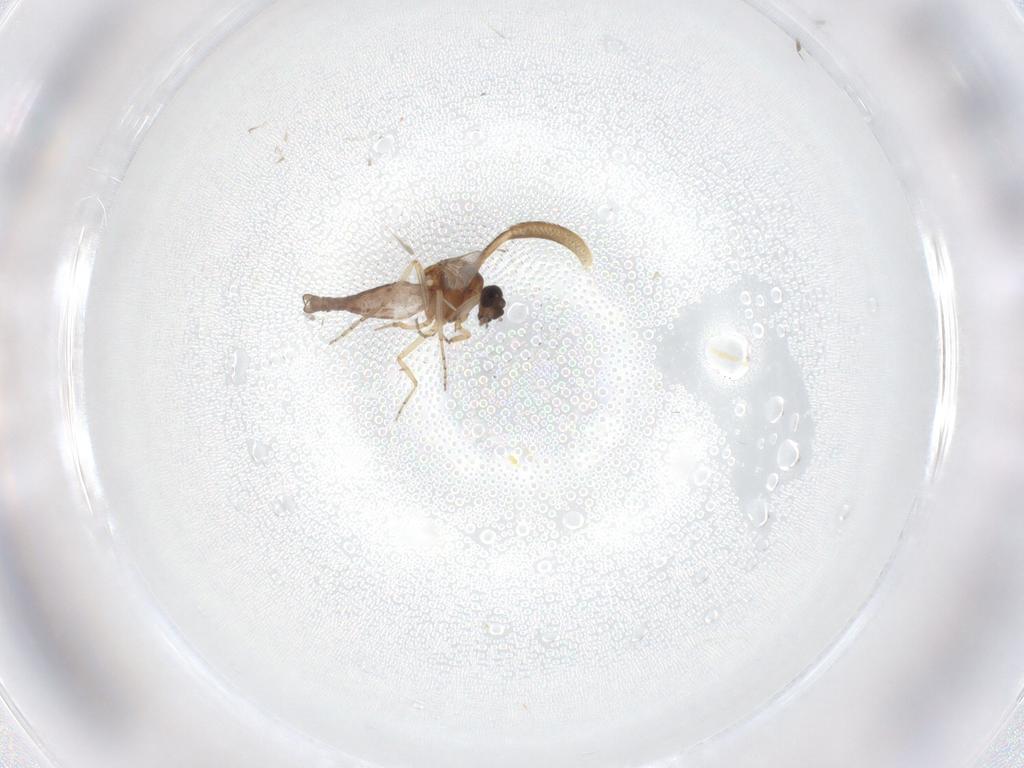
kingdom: Animalia
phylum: Arthropoda
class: Insecta
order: Diptera
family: Ceratopogonidae
